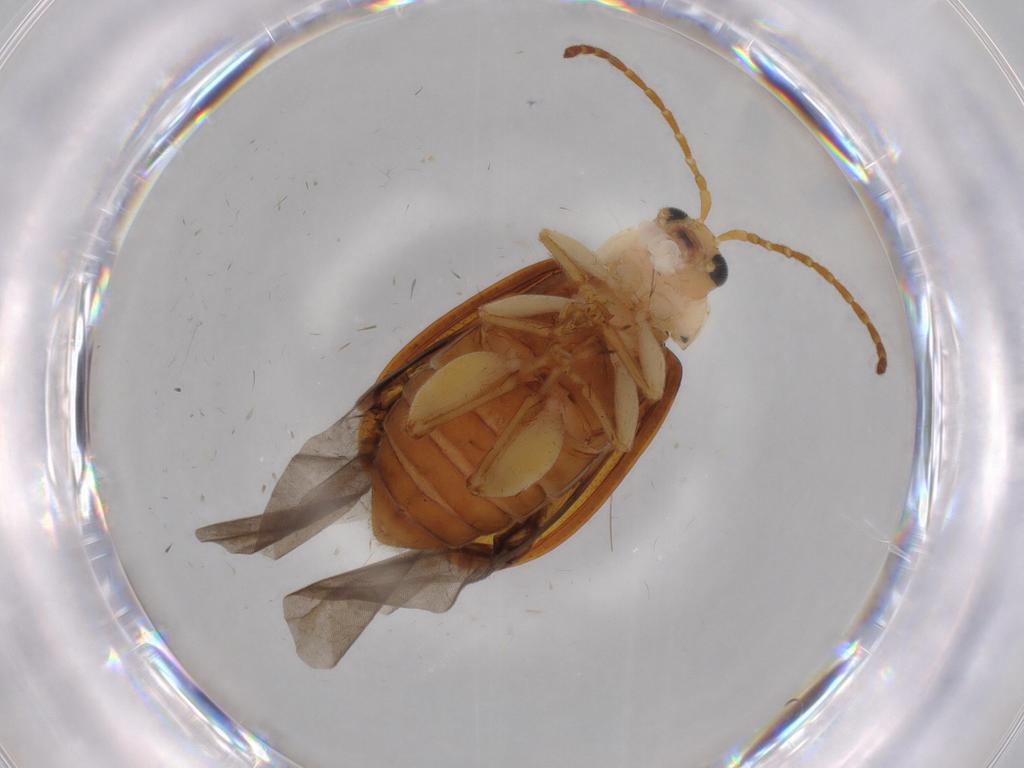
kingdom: Animalia
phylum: Arthropoda
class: Insecta
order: Coleoptera
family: Chrysomelidae
